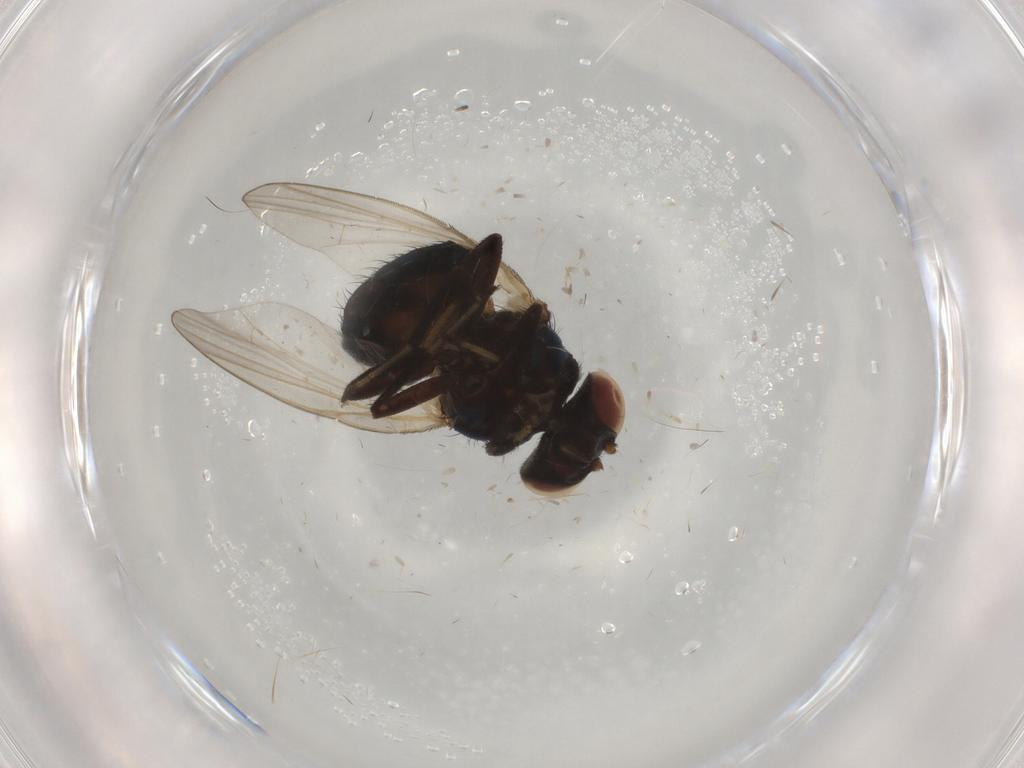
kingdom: Animalia
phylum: Arthropoda
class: Insecta
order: Diptera
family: Lonchaeidae
